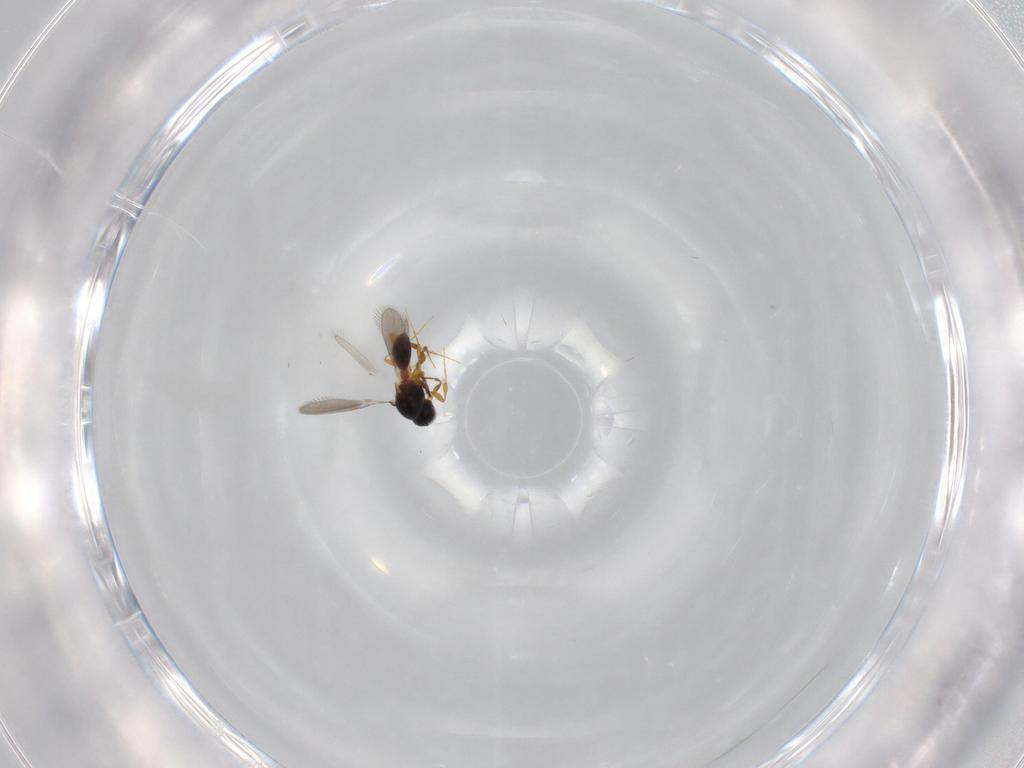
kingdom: Animalia
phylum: Arthropoda
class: Insecta
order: Hymenoptera
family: Platygastridae
